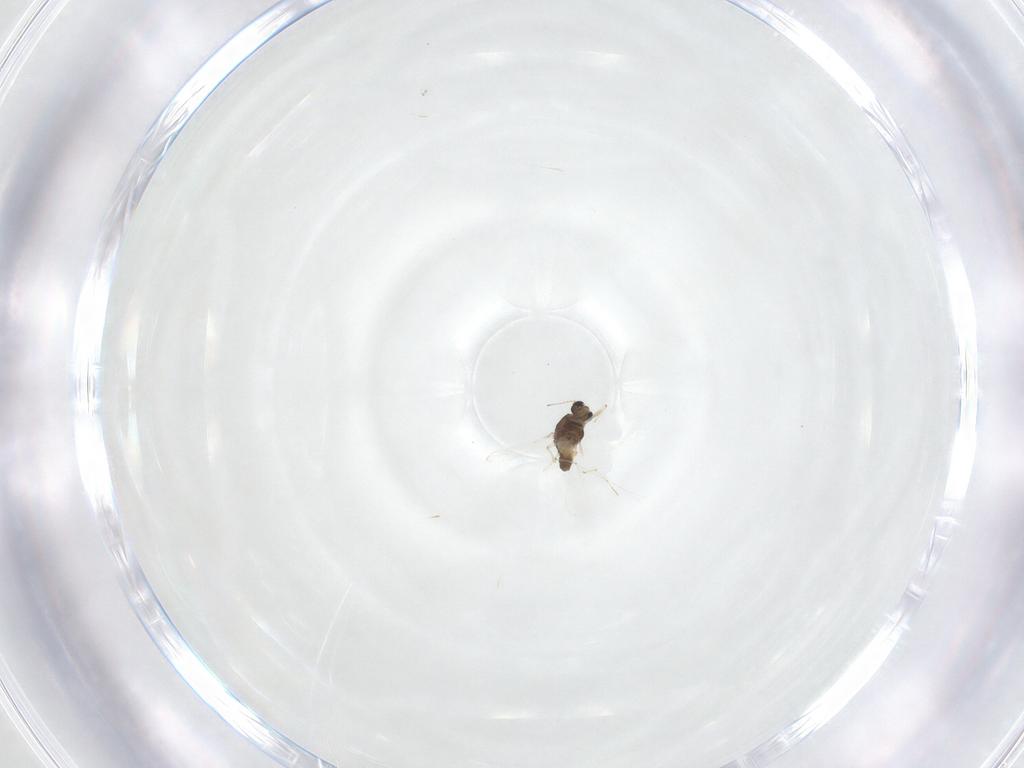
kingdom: Animalia
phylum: Arthropoda
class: Insecta
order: Diptera
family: Chironomidae
